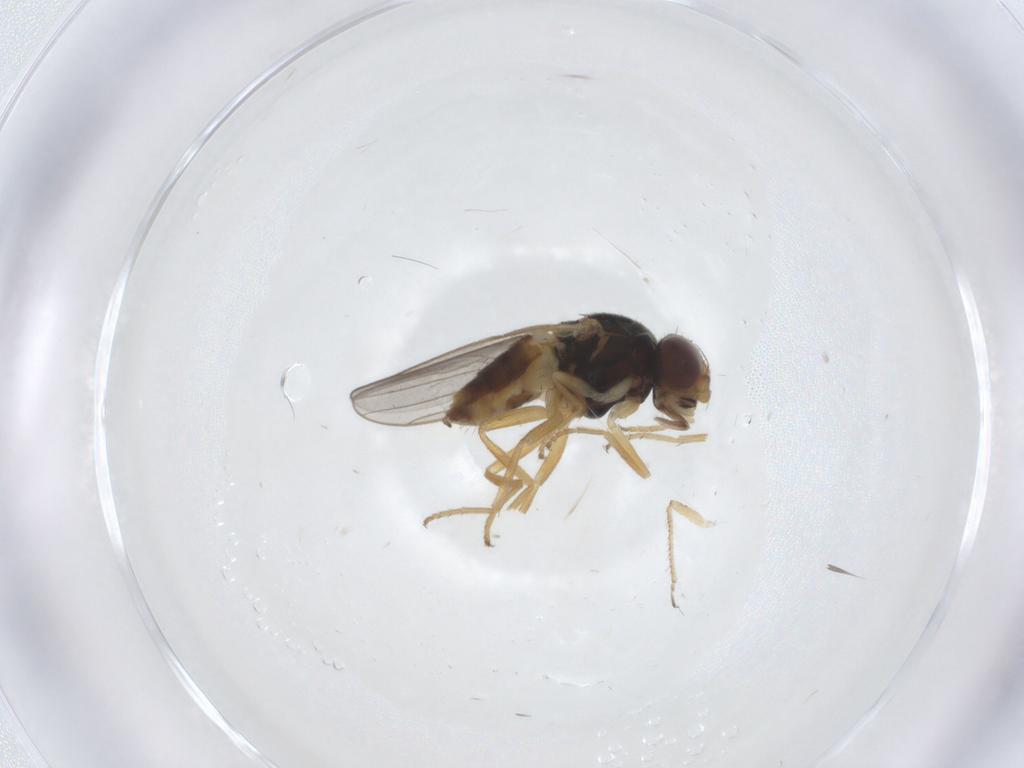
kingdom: Animalia
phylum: Arthropoda
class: Insecta
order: Diptera
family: Chloropidae
